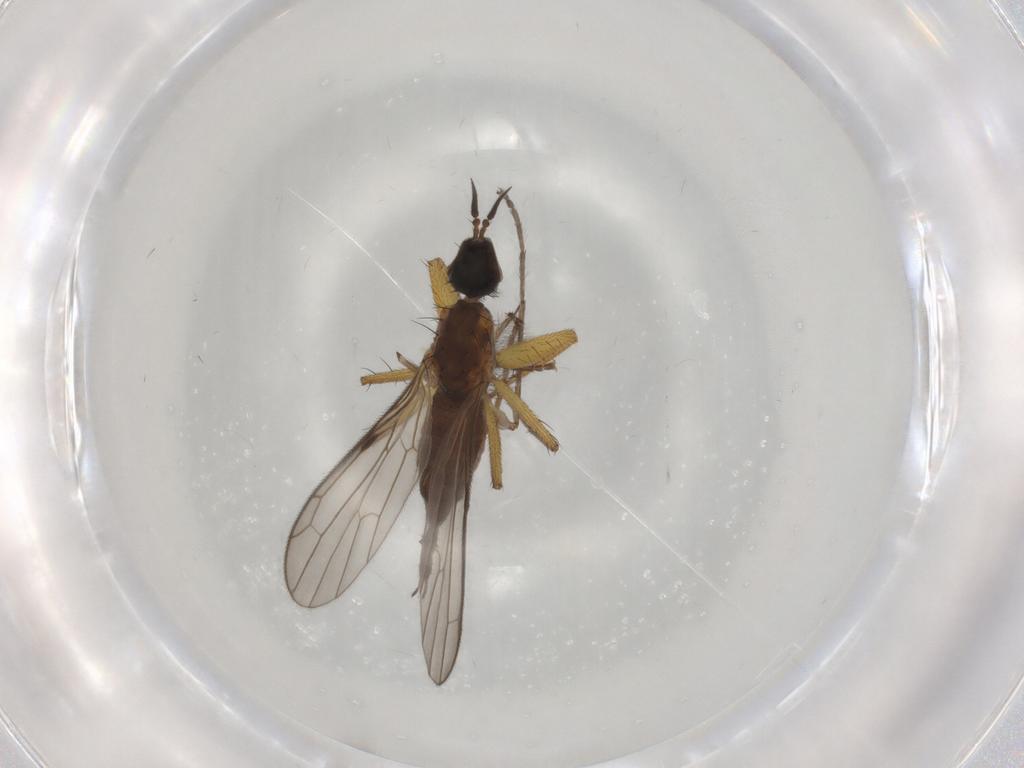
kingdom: Animalia
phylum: Arthropoda
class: Insecta
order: Diptera
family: Empididae
